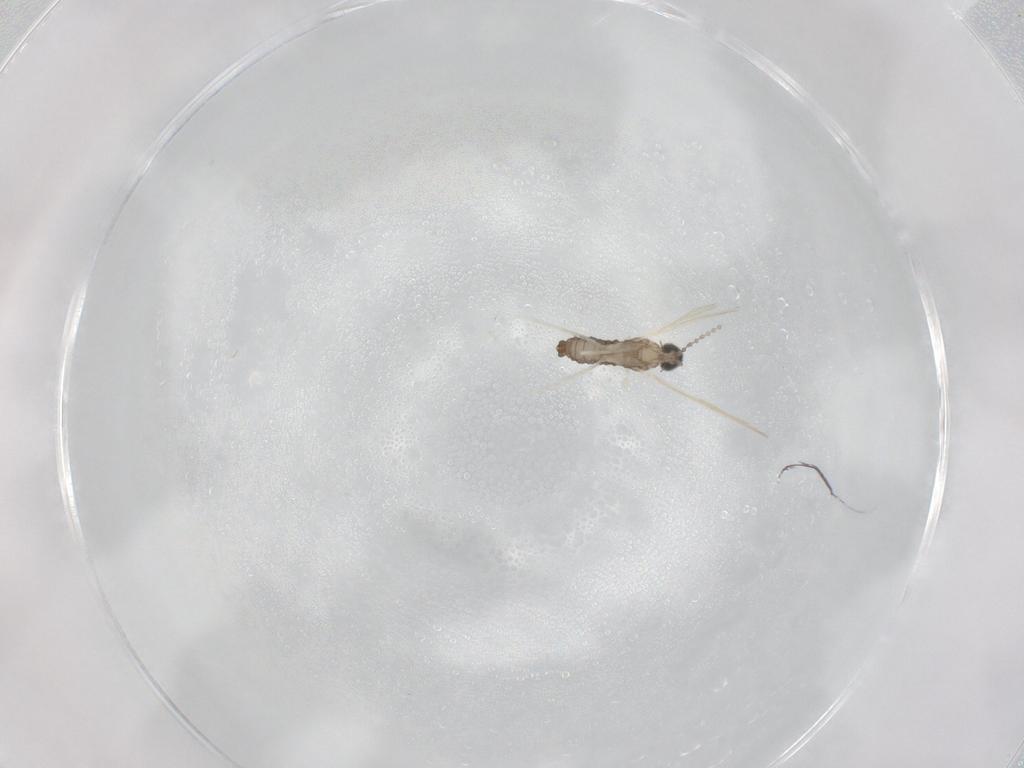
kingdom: Animalia
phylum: Arthropoda
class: Insecta
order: Diptera
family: Cecidomyiidae
